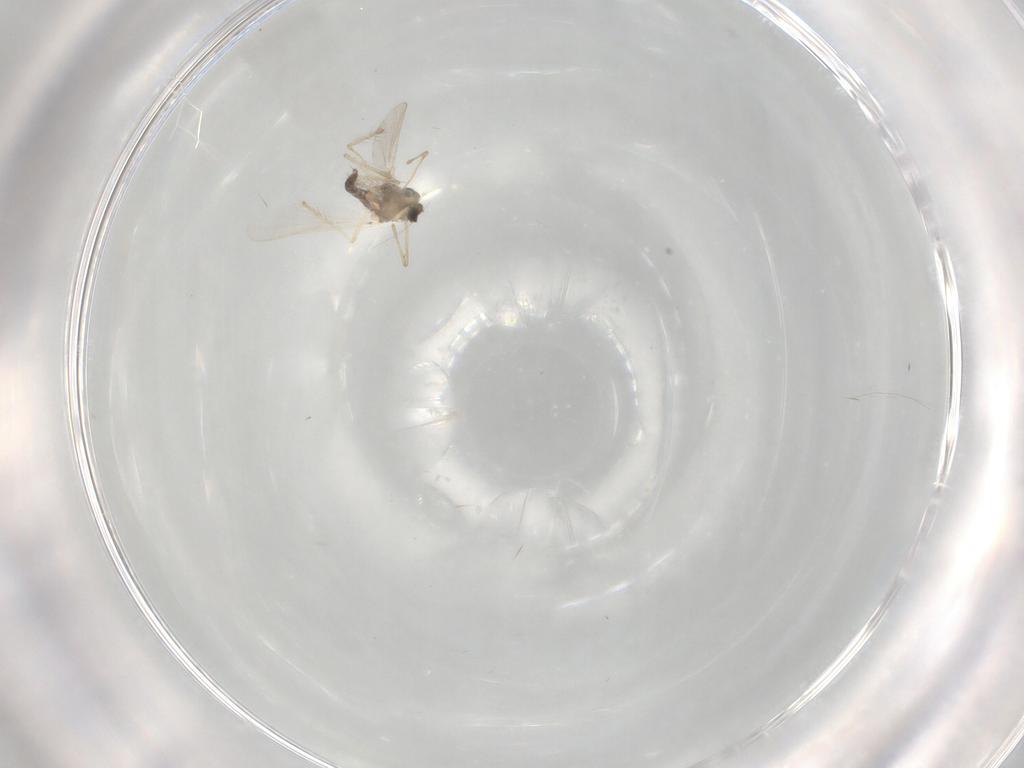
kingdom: Animalia
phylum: Arthropoda
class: Insecta
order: Diptera
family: Chironomidae
